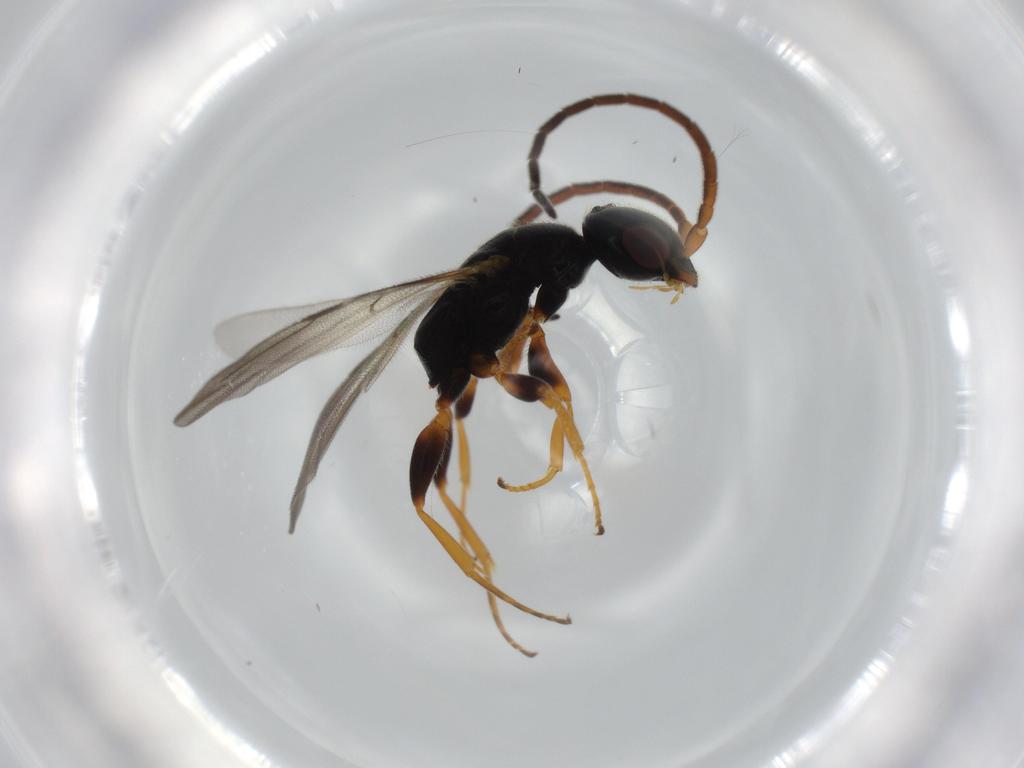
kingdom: Animalia
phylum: Arthropoda
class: Insecta
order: Hymenoptera
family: Bethylidae
